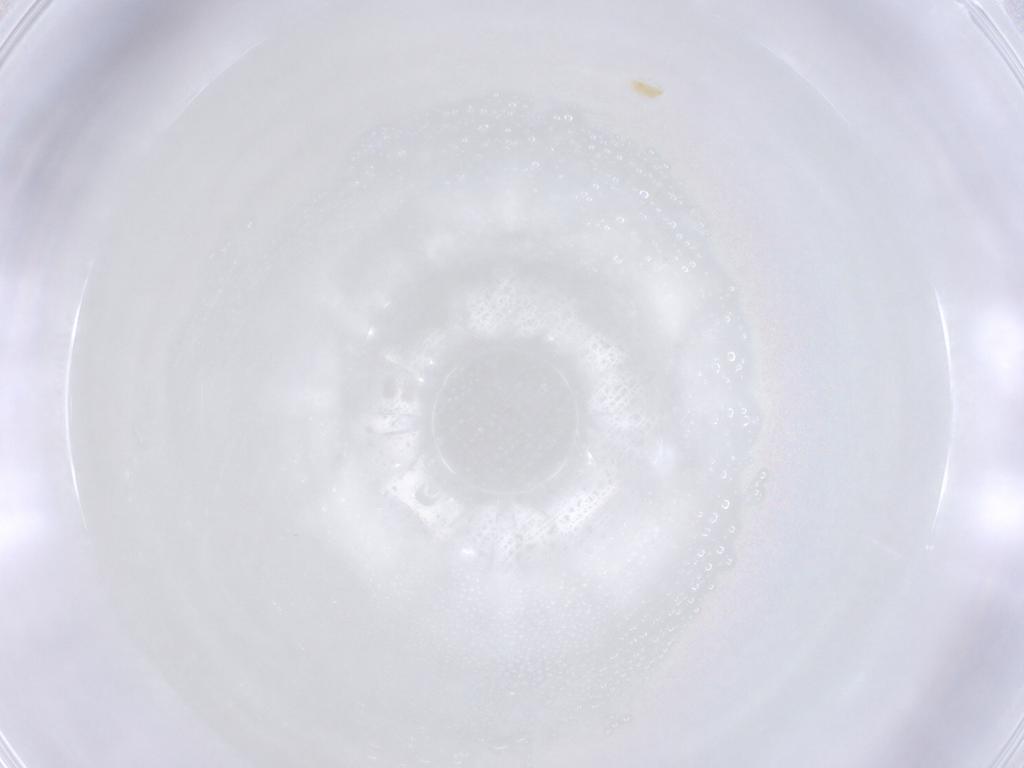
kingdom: Animalia
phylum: Arthropoda
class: Arachnida
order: Trombidiformes
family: Tetranychidae
